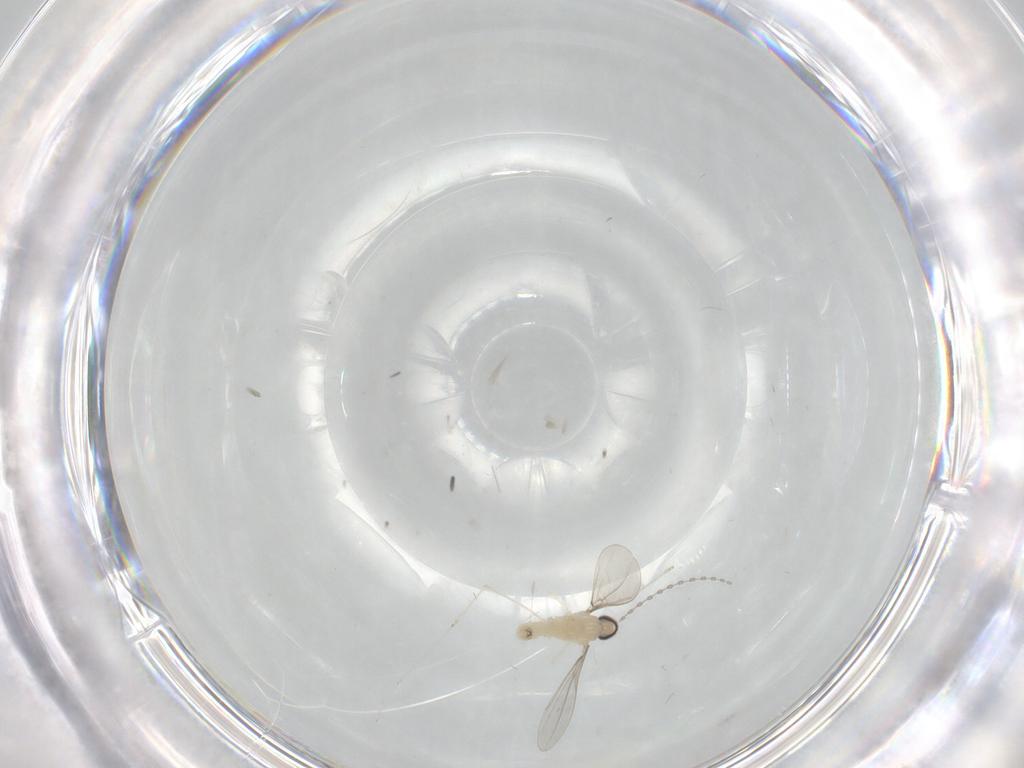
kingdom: Animalia
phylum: Arthropoda
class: Insecta
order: Diptera
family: Cecidomyiidae
